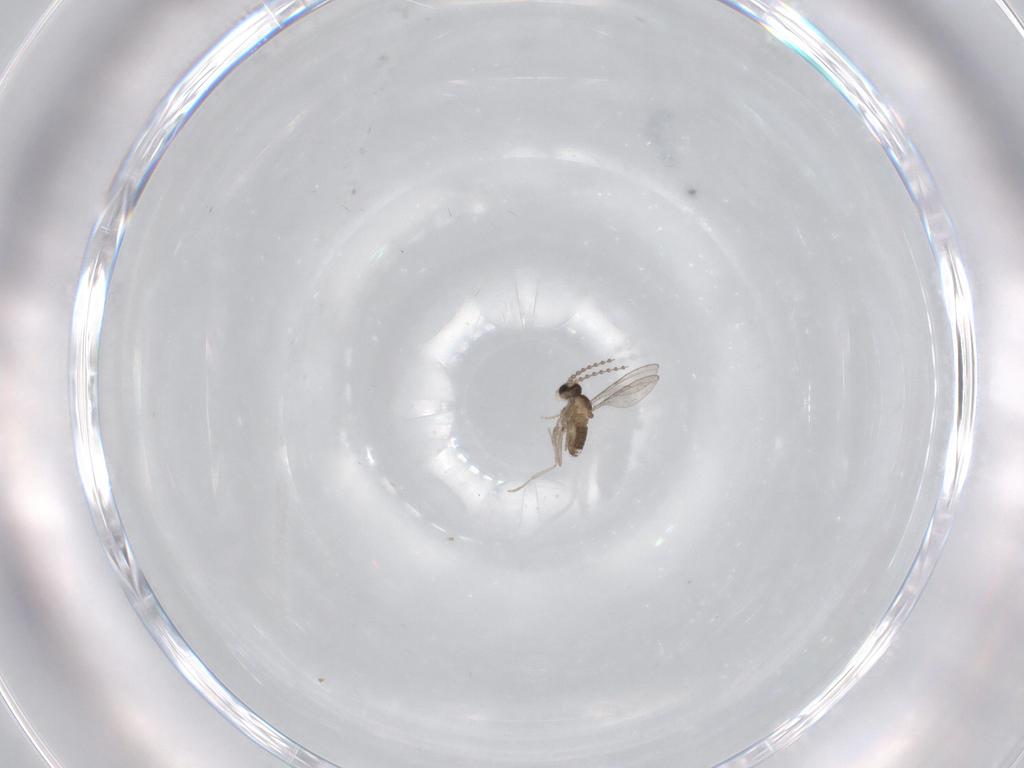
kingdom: Animalia
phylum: Arthropoda
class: Insecta
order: Diptera
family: Cecidomyiidae
